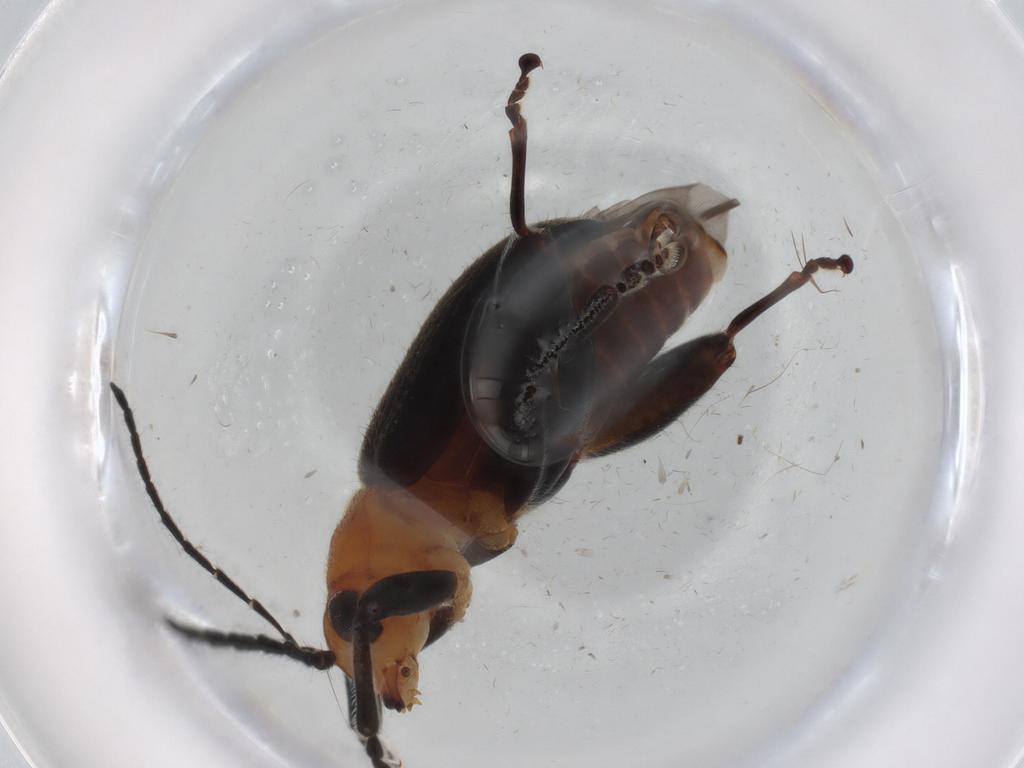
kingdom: Animalia
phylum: Arthropoda
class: Insecta
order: Coleoptera
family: Chrysomelidae
